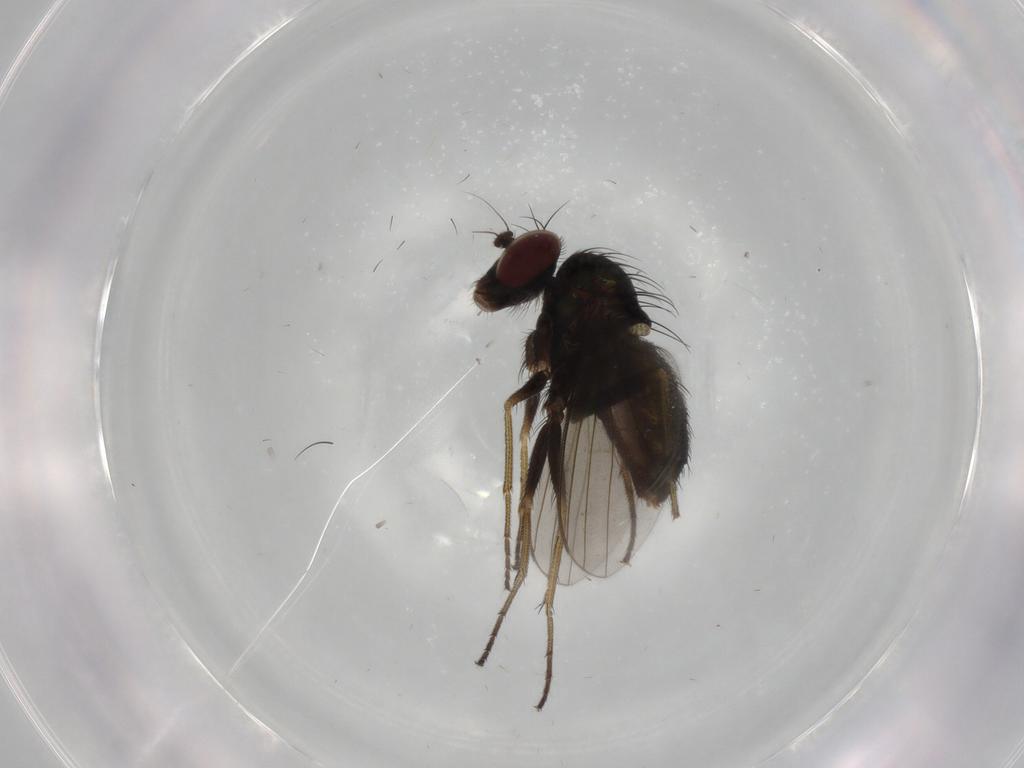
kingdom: Animalia
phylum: Arthropoda
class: Insecta
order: Diptera
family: Dolichopodidae
